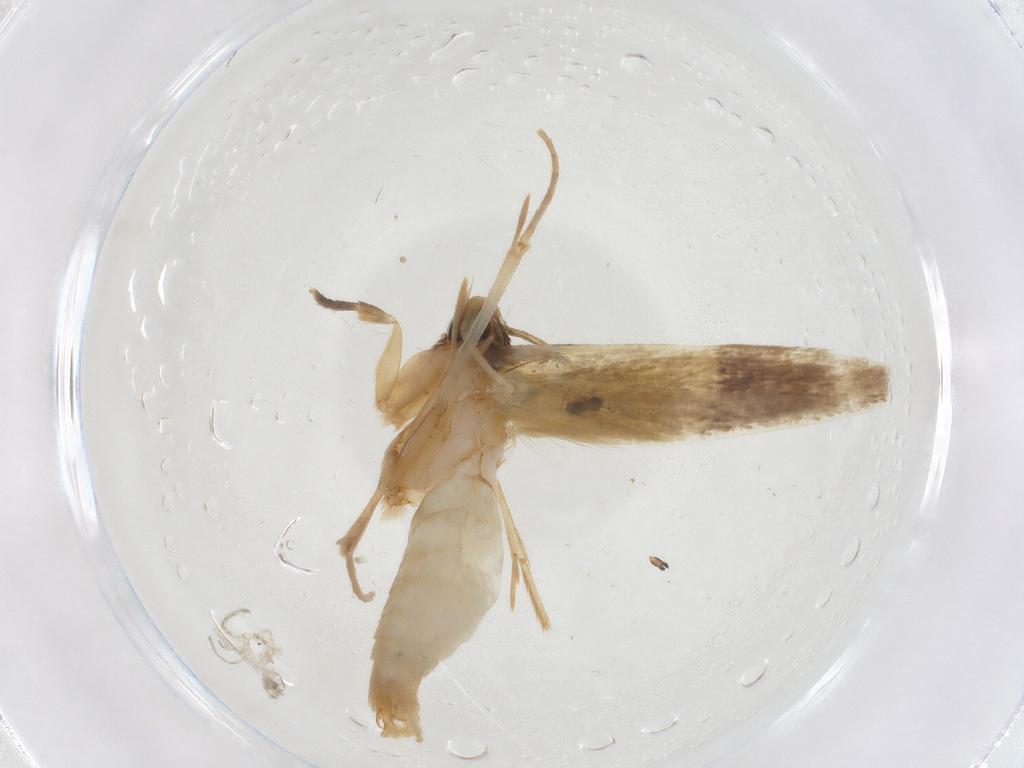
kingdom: Animalia
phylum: Arthropoda
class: Insecta
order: Lepidoptera
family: Tineidae
